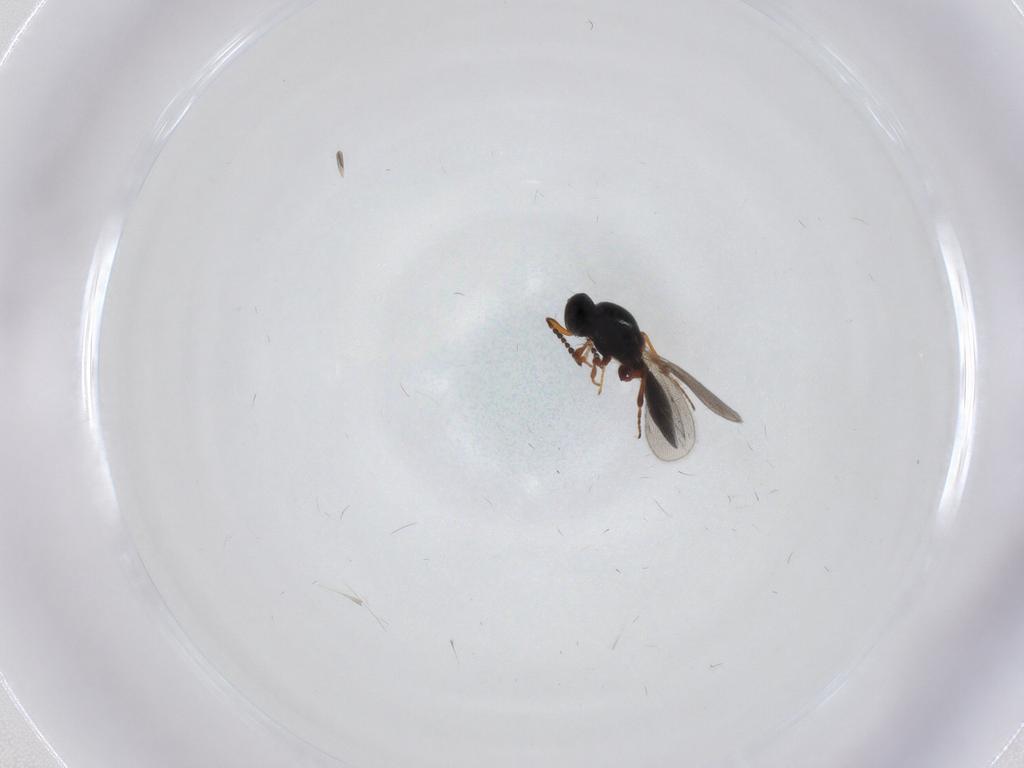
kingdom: Animalia
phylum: Arthropoda
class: Insecta
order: Hymenoptera
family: Platygastridae
